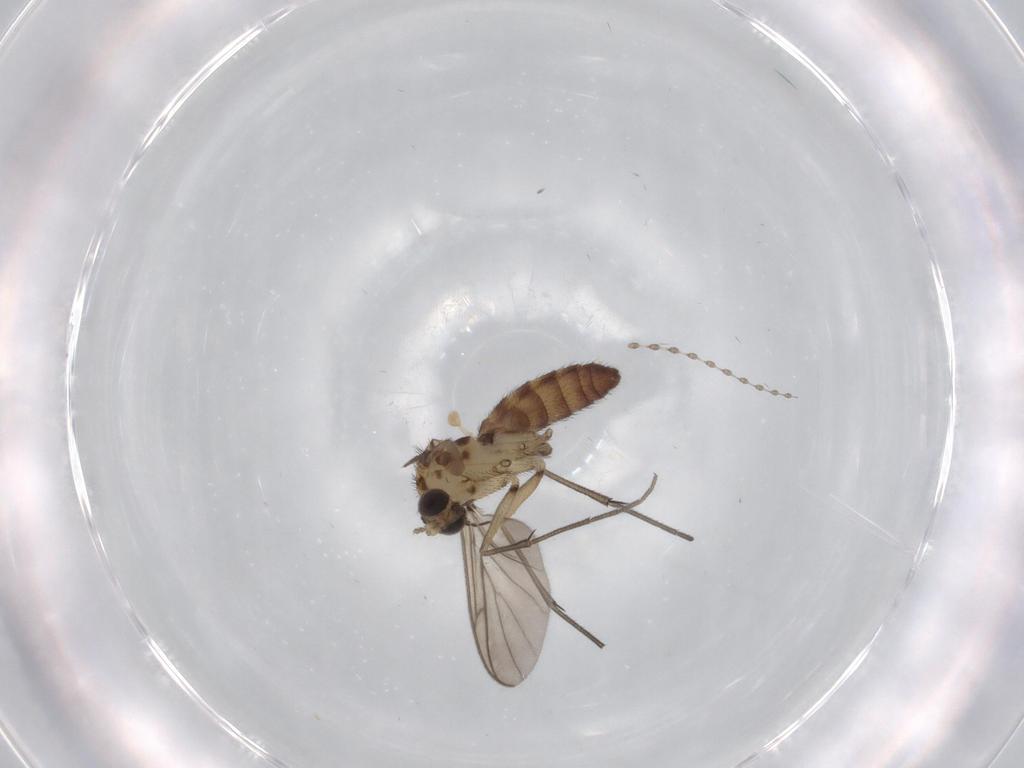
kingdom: Animalia
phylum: Arthropoda
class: Insecta
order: Diptera
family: Keroplatidae
